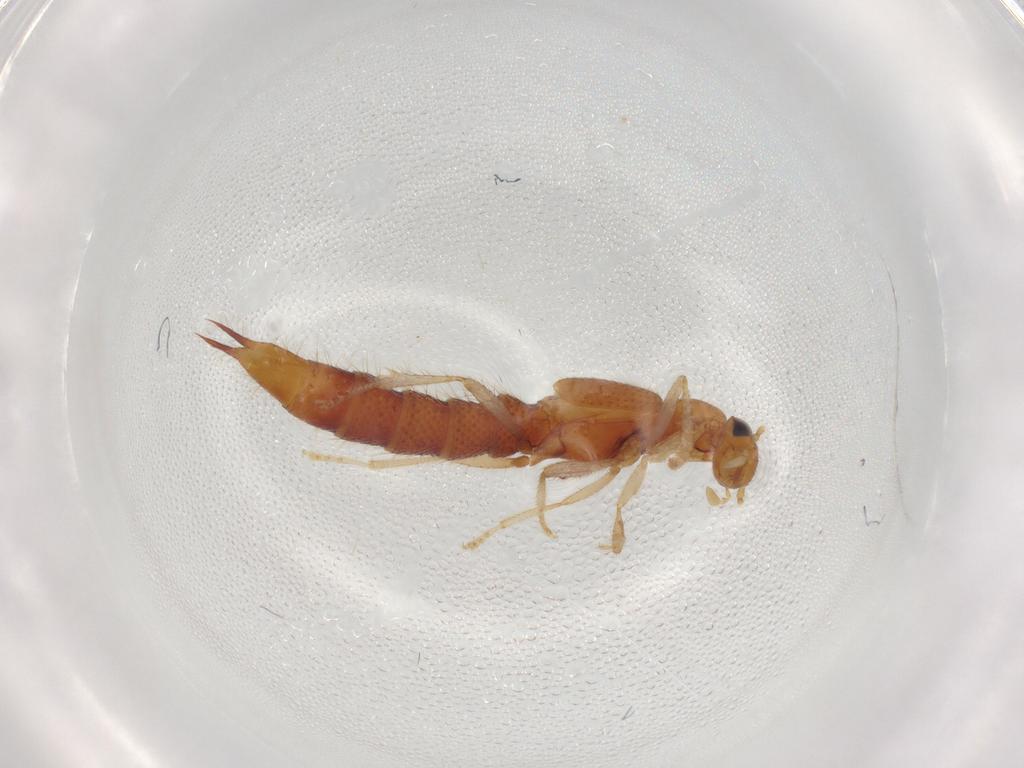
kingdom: Animalia
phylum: Arthropoda
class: Insecta
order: Coleoptera
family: Staphylinidae
